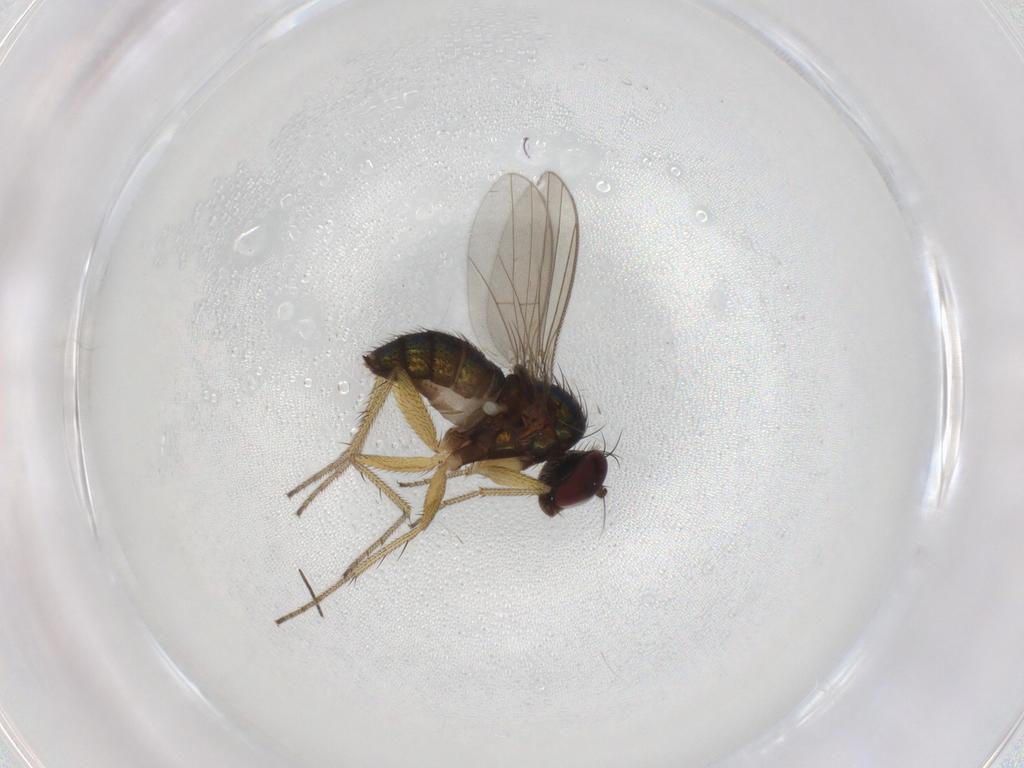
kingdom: Animalia
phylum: Arthropoda
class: Insecta
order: Diptera
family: Dolichopodidae
